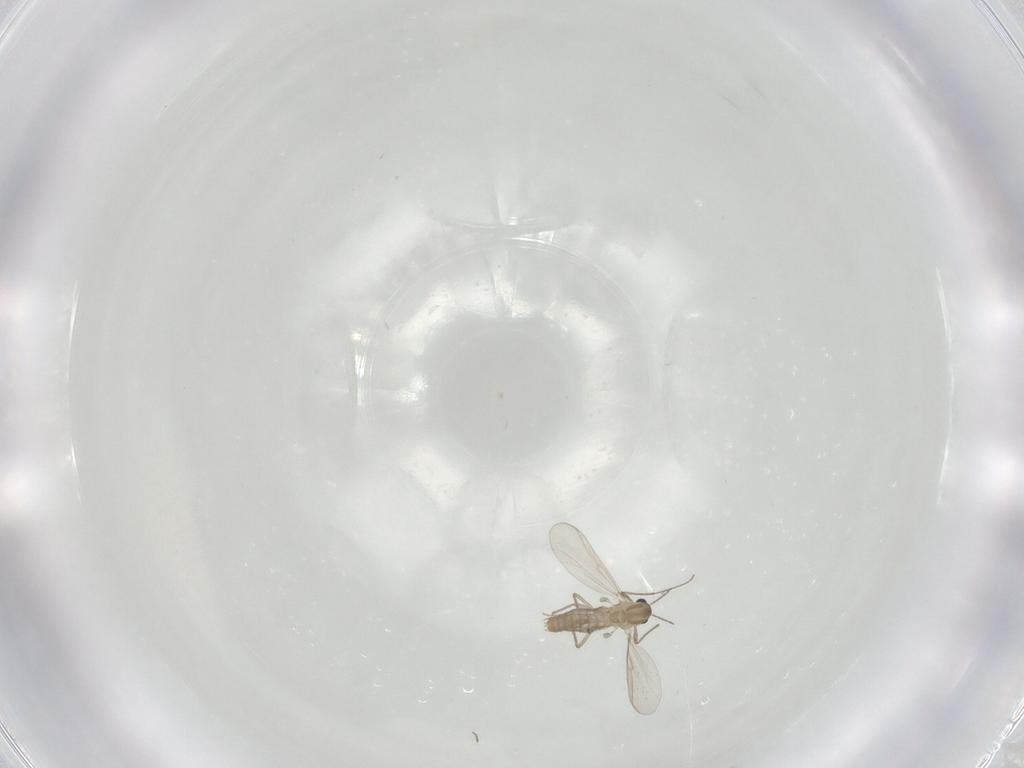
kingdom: Animalia
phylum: Arthropoda
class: Insecta
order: Diptera
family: Chironomidae
